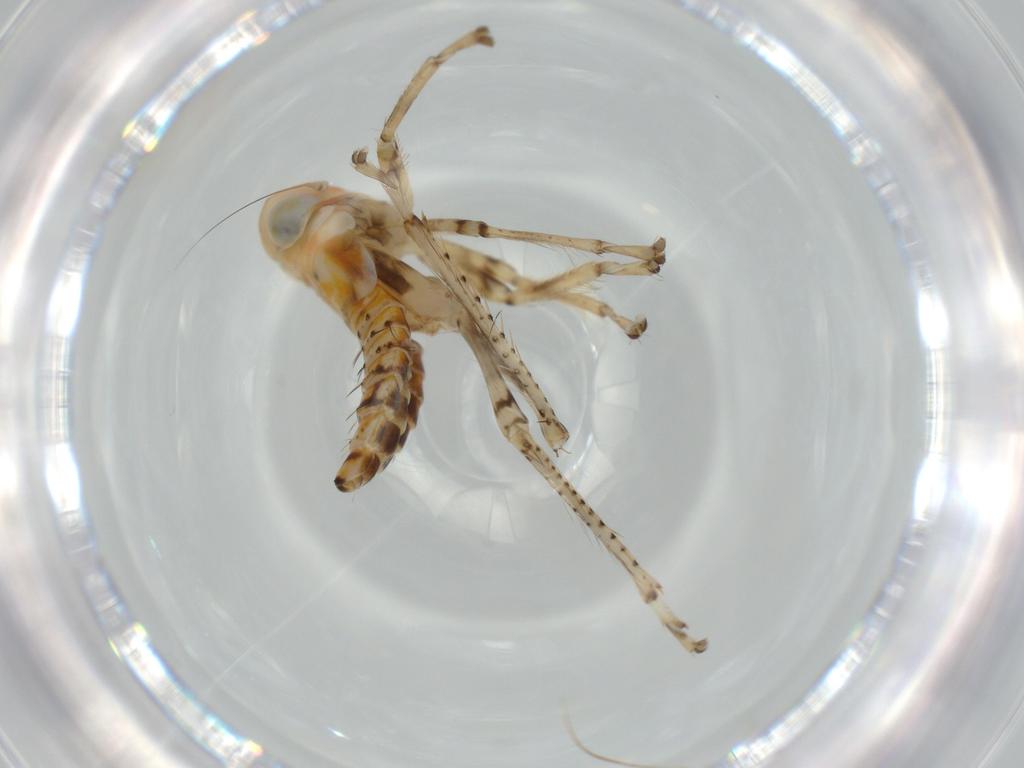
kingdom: Animalia
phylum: Arthropoda
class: Insecta
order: Hemiptera
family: Cicadellidae
